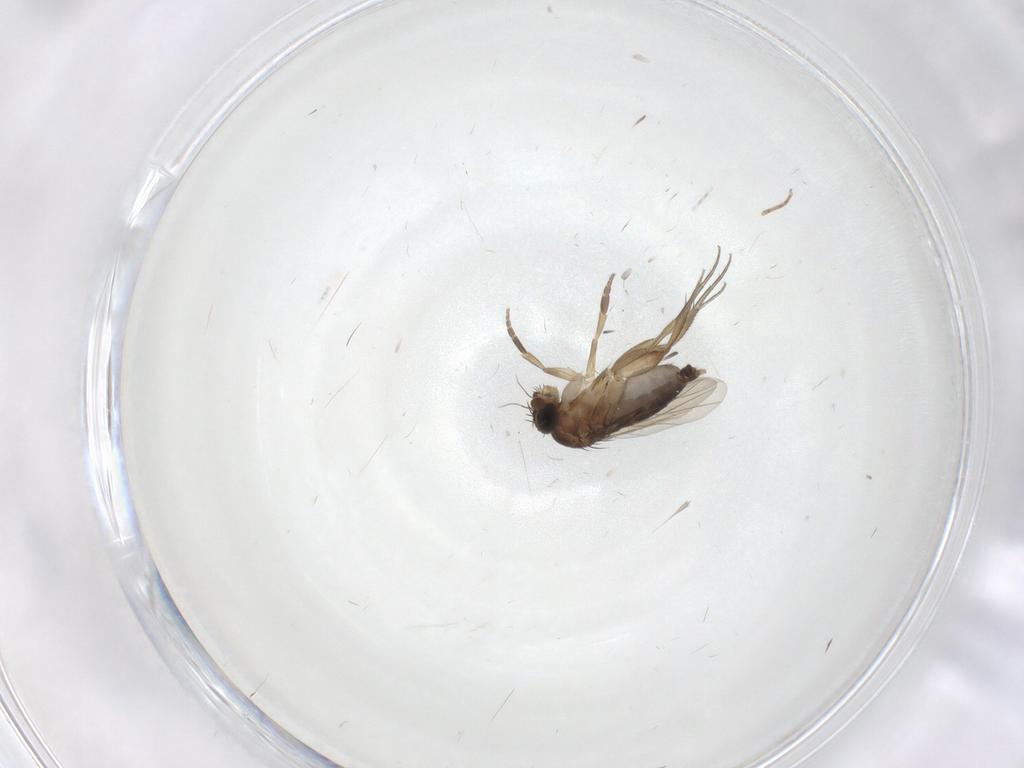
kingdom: Animalia
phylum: Arthropoda
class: Insecta
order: Diptera
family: Phoridae
